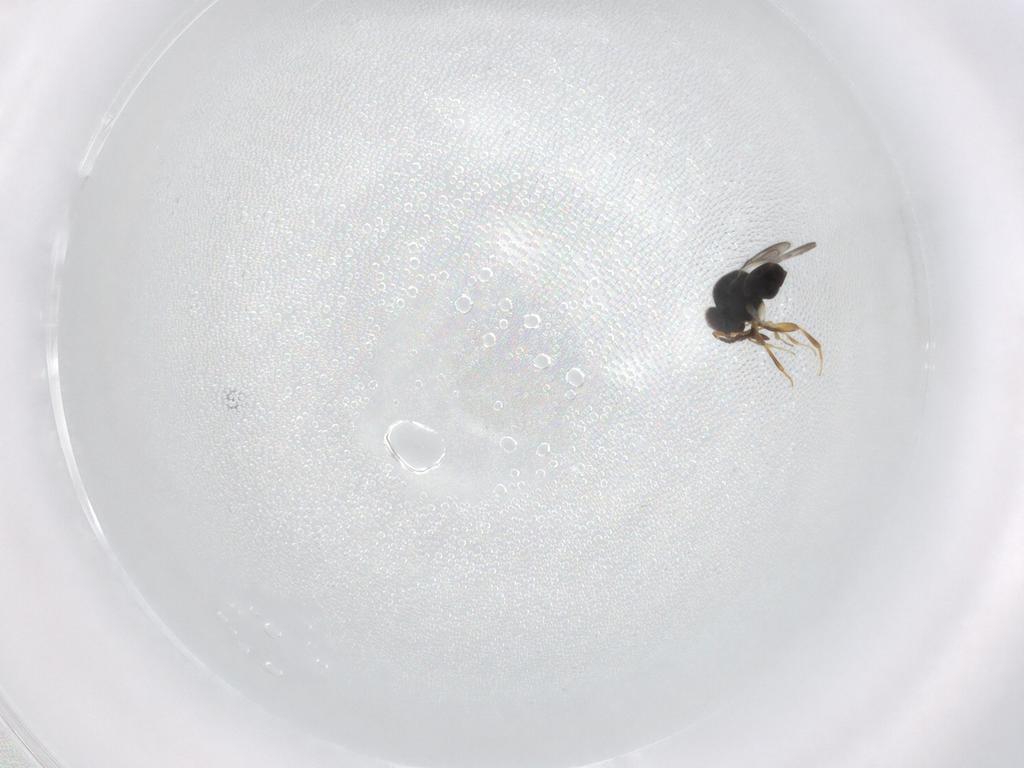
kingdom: Animalia
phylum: Arthropoda
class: Insecta
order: Hymenoptera
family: Ceraphronidae
